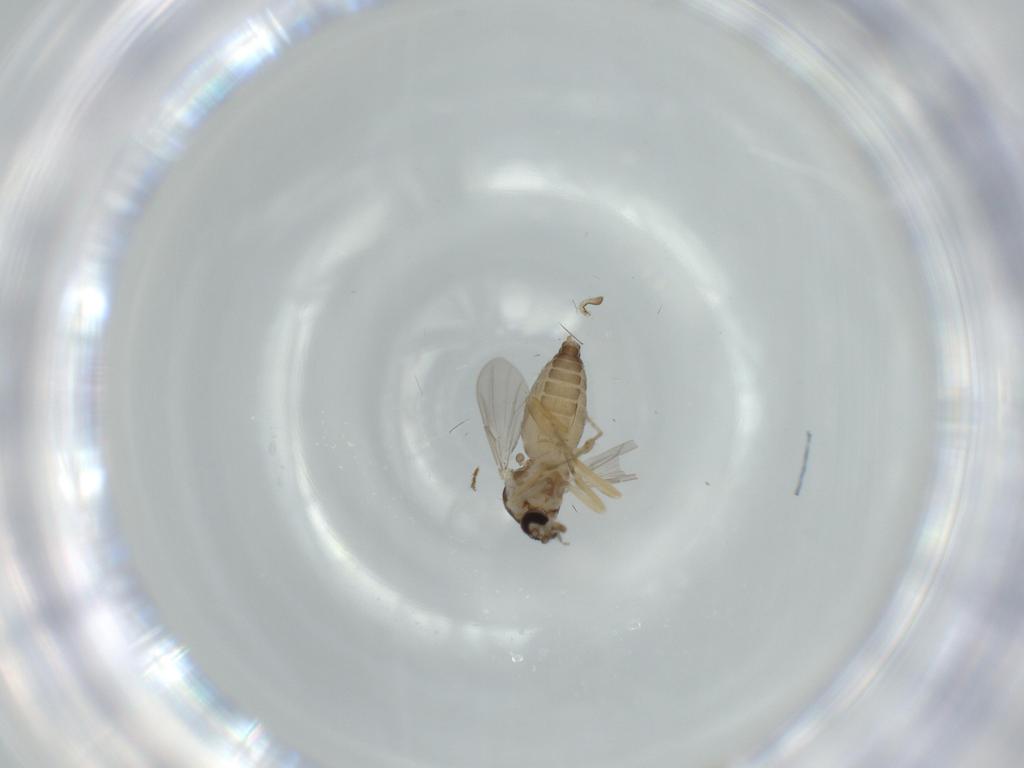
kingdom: Animalia
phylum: Arthropoda
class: Insecta
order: Diptera
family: Ceratopogonidae
